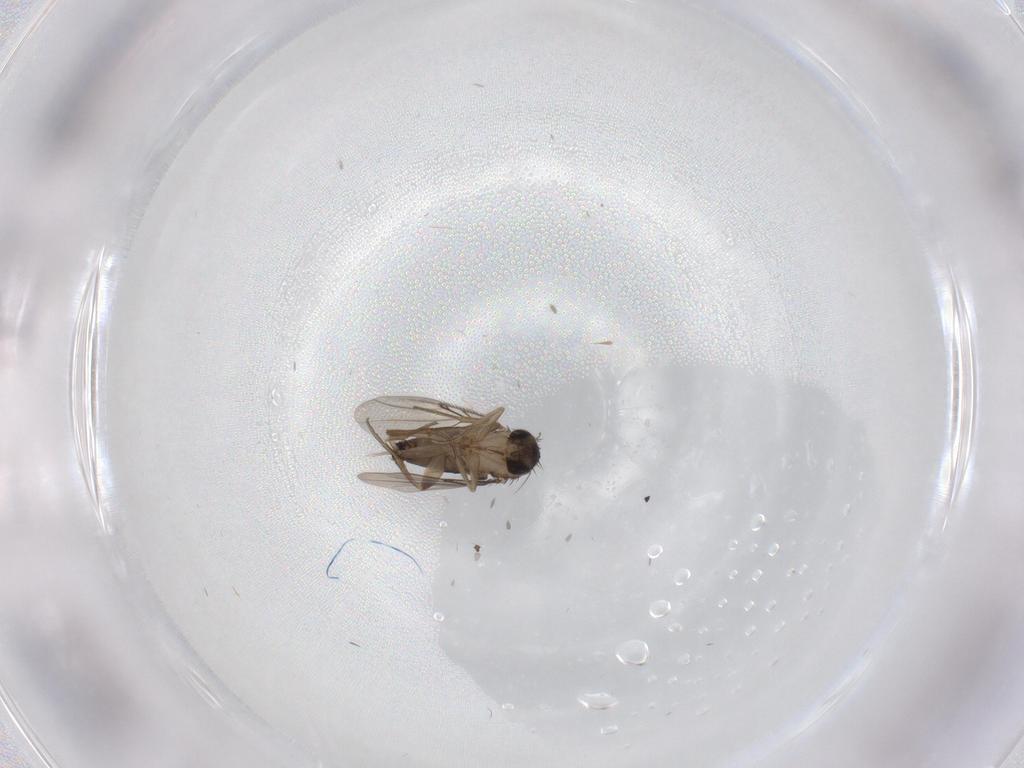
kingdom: Animalia
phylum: Arthropoda
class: Insecta
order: Diptera
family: Phoridae
